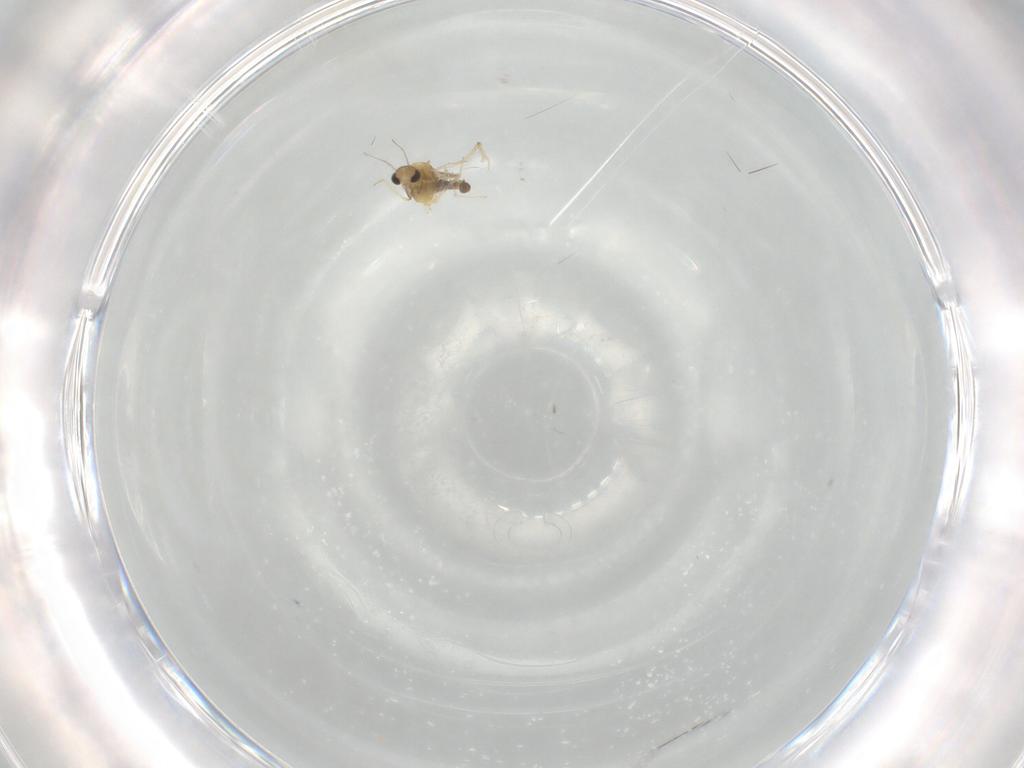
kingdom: Animalia
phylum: Arthropoda
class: Insecta
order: Diptera
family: Chironomidae
